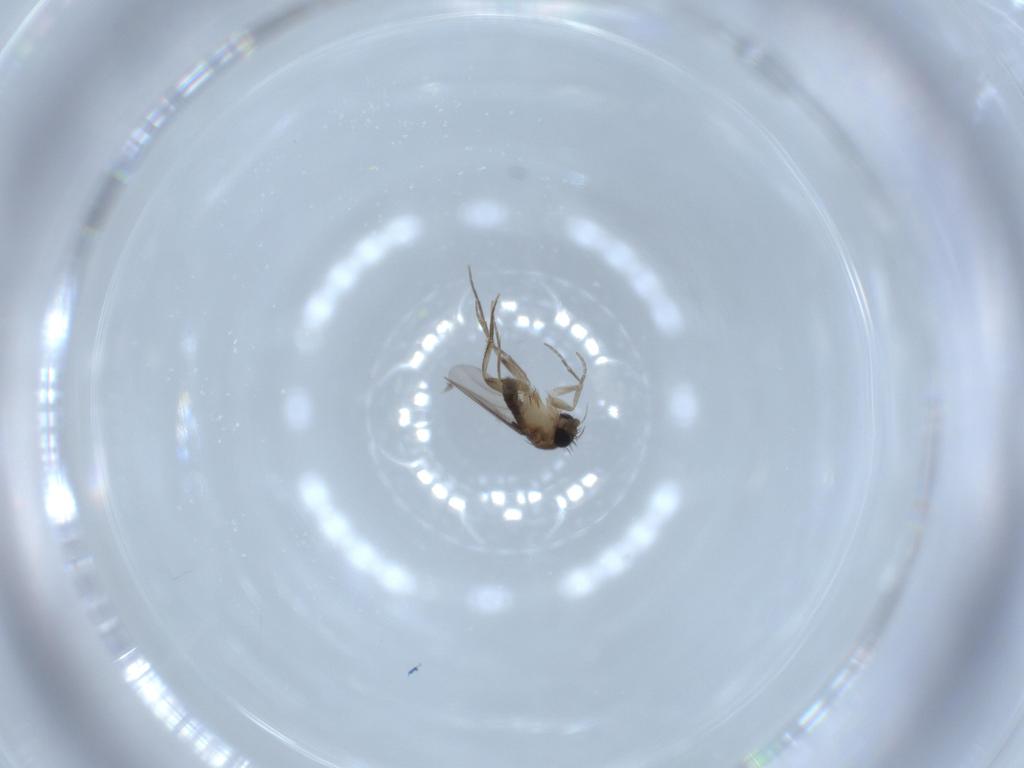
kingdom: Animalia
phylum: Arthropoda
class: Insecta
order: Diptera
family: Phoridae
